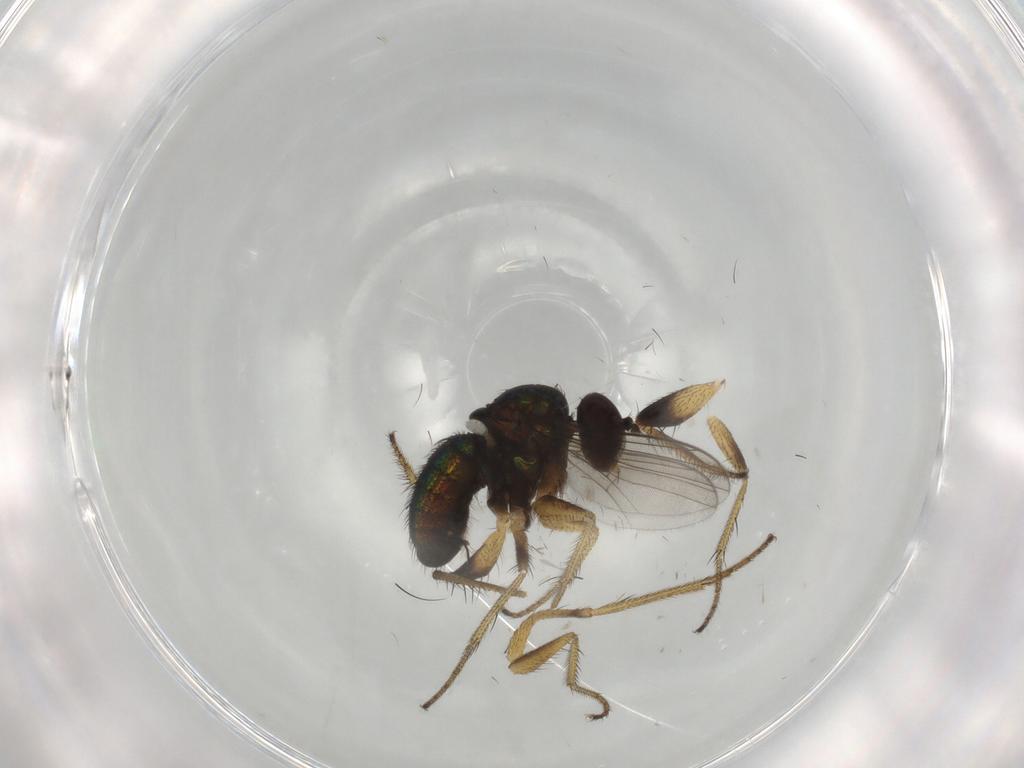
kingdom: Animalia
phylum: Arthropoda
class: Insecta
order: Diptera
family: Dolichopodidae
